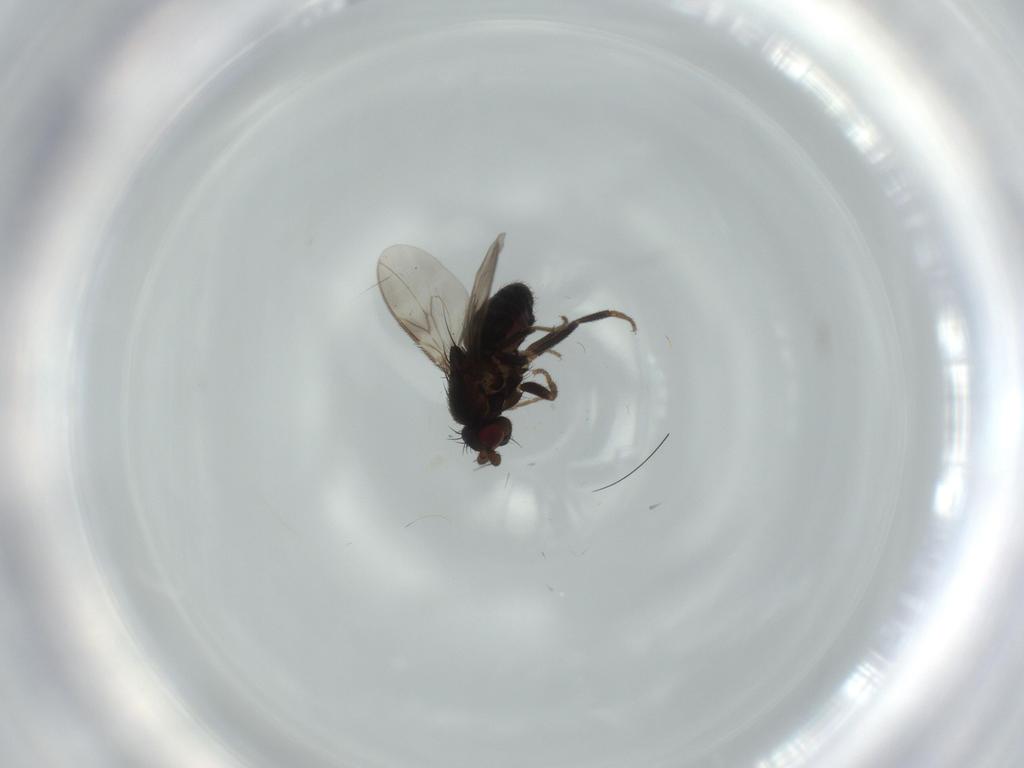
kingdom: Animalia
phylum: Arthropoda
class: Insecta
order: Diptera
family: Sphaeroceridae
